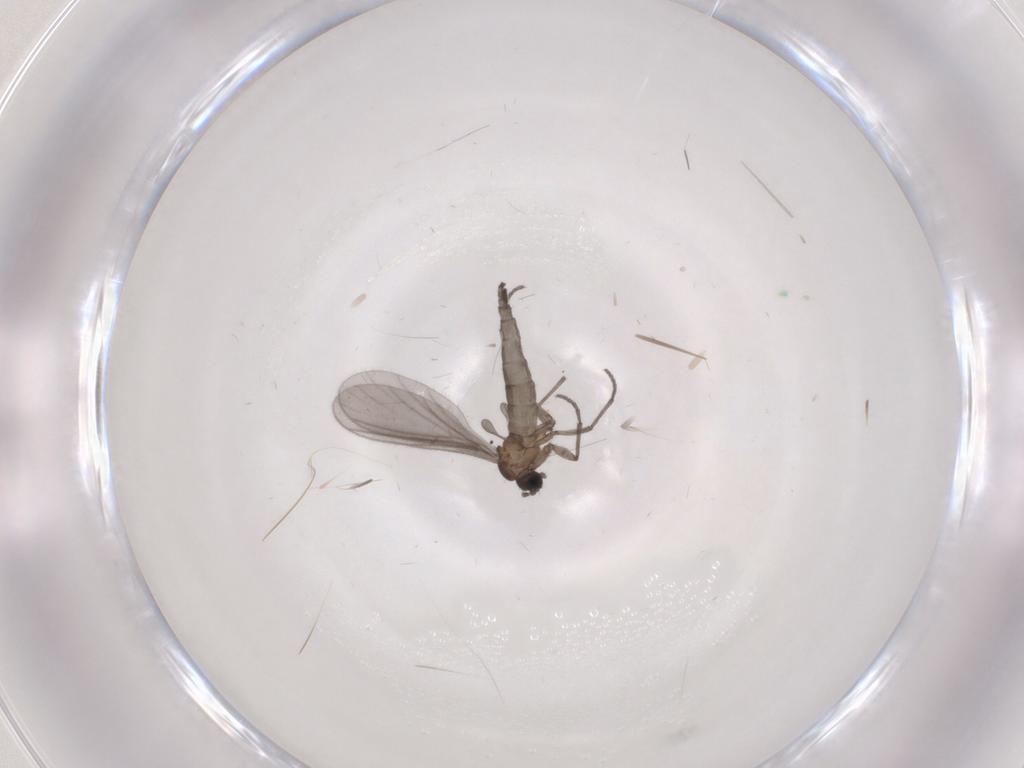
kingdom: Animalia
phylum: Arthropoda
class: Insecta
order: Diptera
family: Sciaridae
